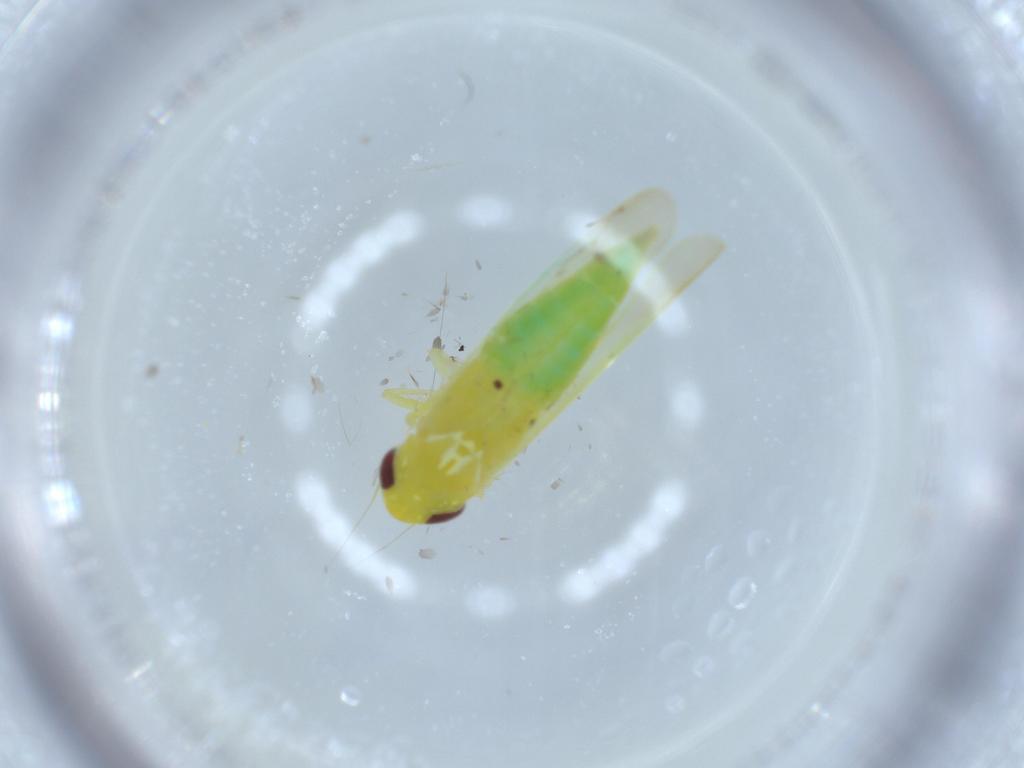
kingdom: Animalia
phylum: Arthropoda
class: Insecta
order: Diptera
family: Ceratopogonidae
